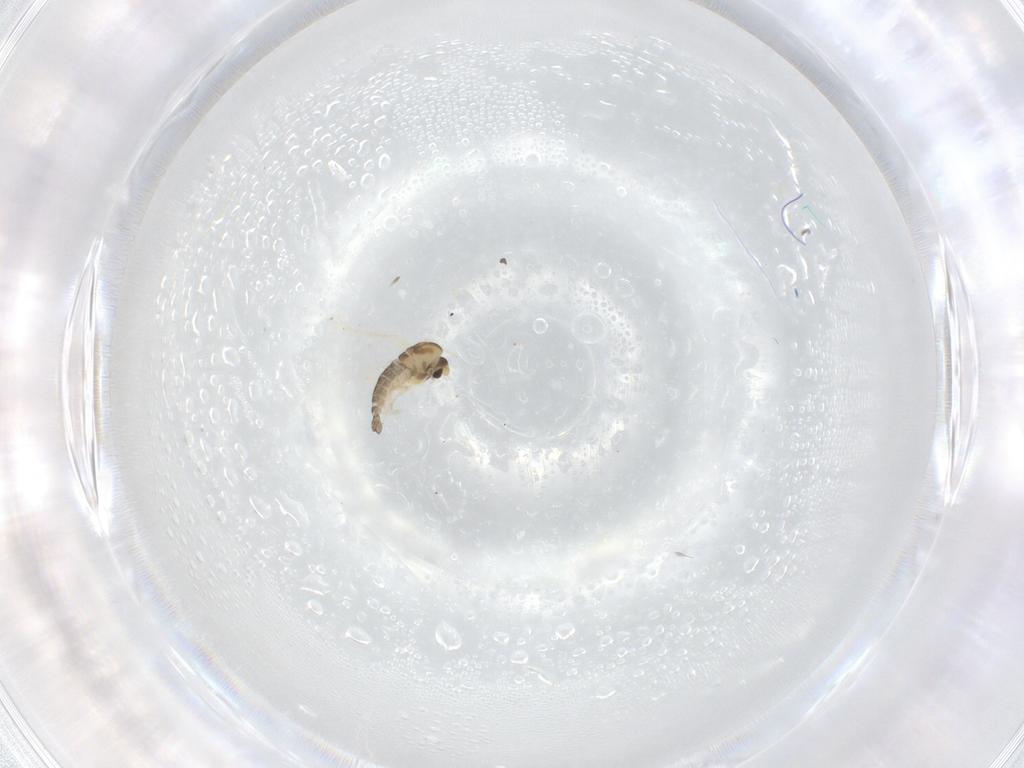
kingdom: Animalia
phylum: Arthropoda
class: Insecta
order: Diptera
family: Chironomidae
